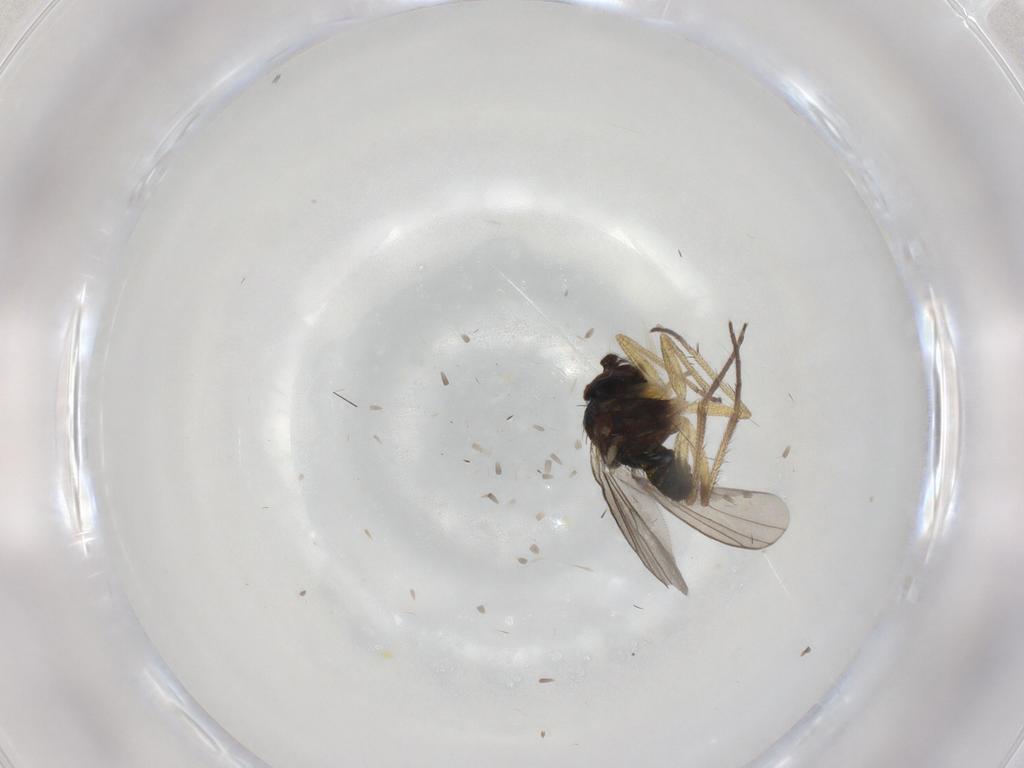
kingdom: Animalia
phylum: Arthropoda
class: Insecta
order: Diptera
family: Dolichopodidae
